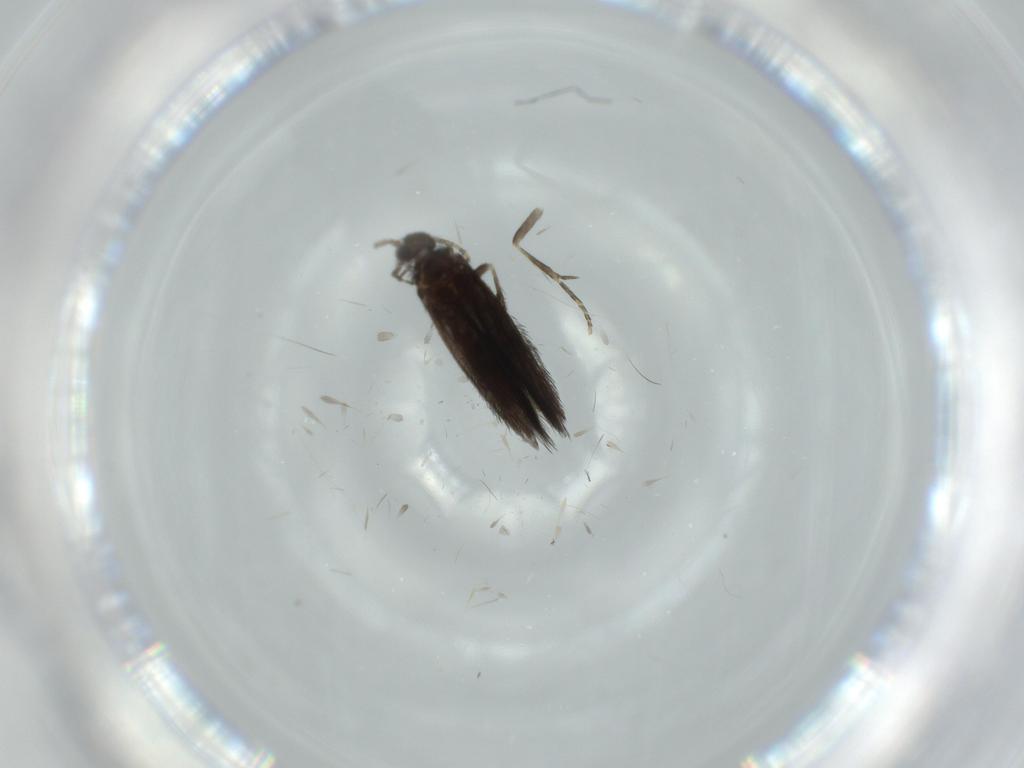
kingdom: Animalia
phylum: Arthropoda
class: Insecta
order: Trichoptera
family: Hydroptilidae
